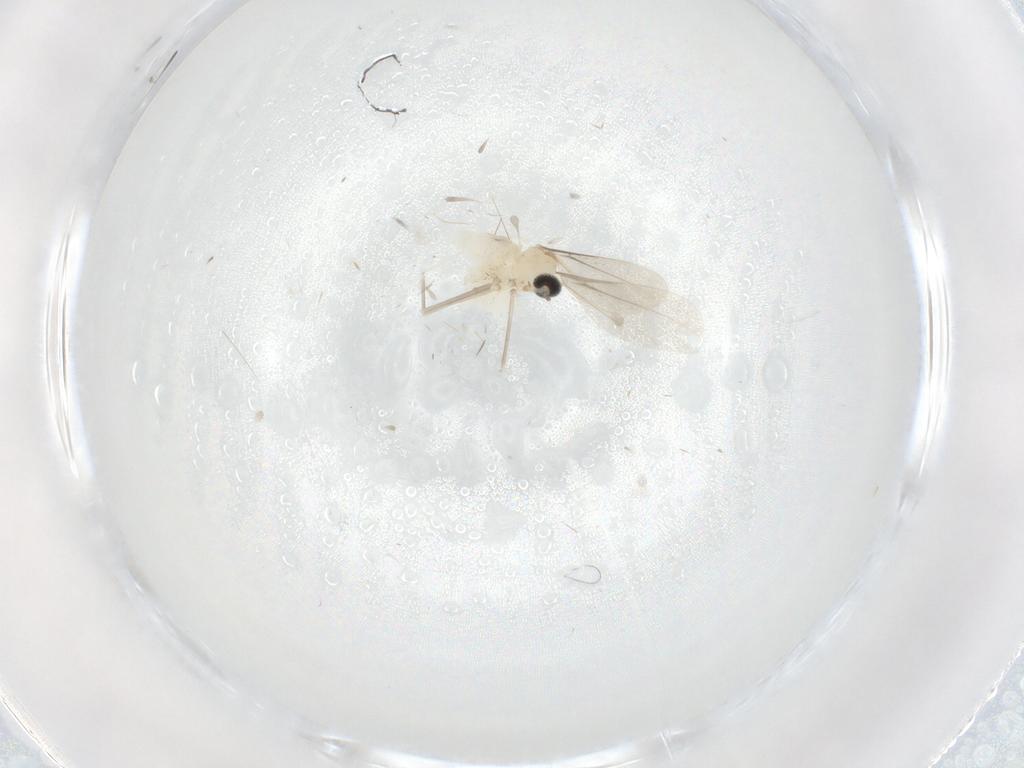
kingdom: Animalia
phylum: Arthropoda
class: Insecta
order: Diptera
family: Cecidomyiidae
